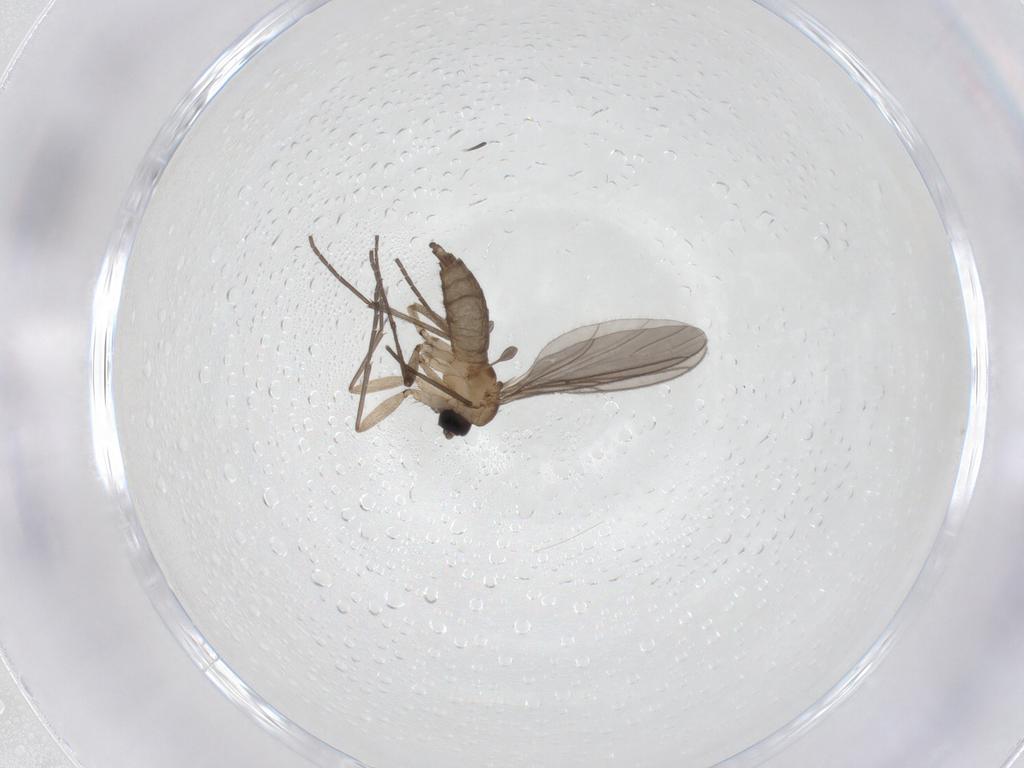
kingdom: Animalia
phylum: Arthropoda
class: Insecta
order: Diptera
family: Sciaridae
